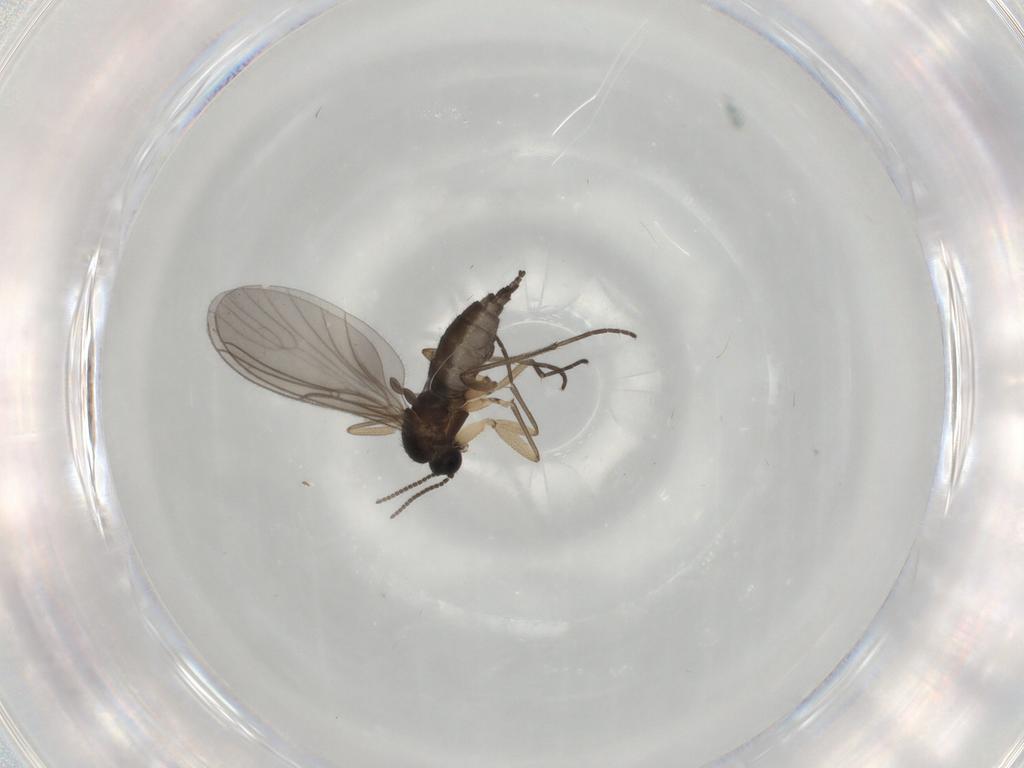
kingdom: Animalia
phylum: Arthropoda
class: Insecta
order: Diptera
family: Sciaridae
